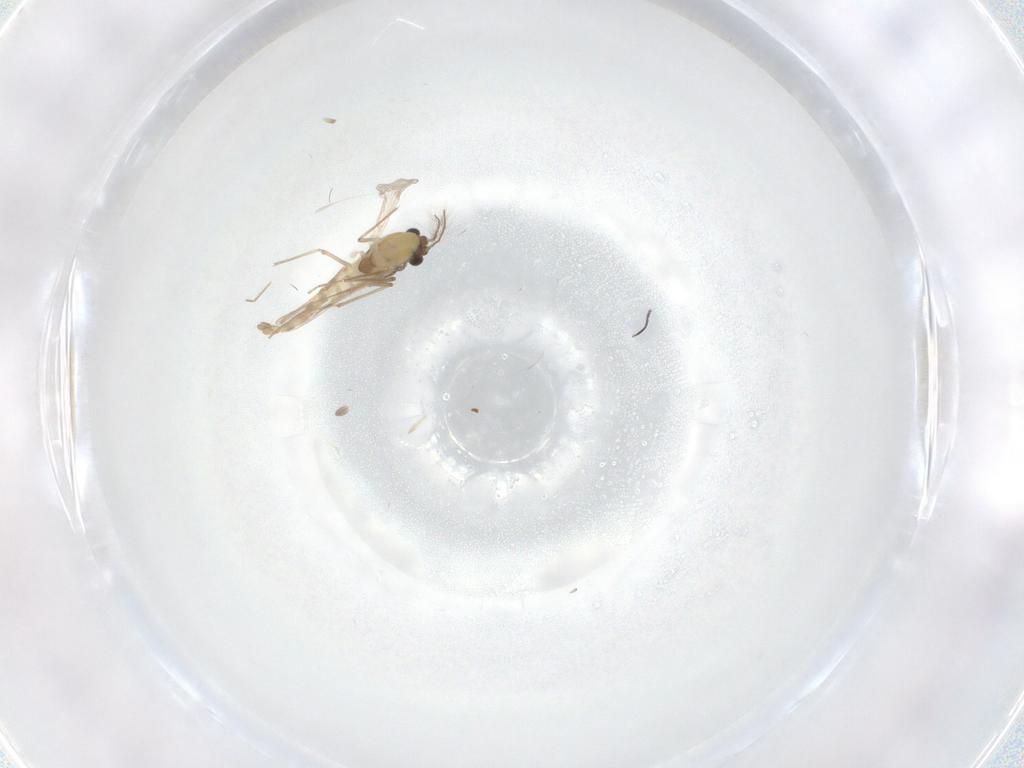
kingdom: Animalia
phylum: Arthropoda
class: Insecta
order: Diptera
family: Chironomidae
